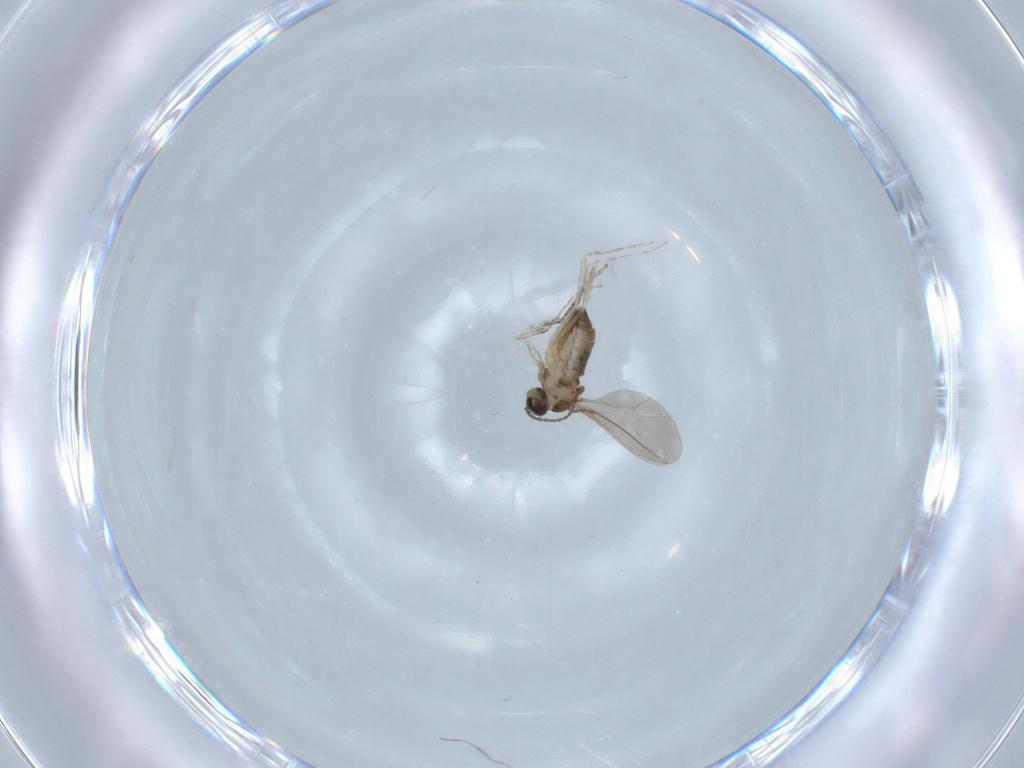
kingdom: Animalia
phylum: Arthropoda
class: Insecta
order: Diptera
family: Cecidomyiidae
